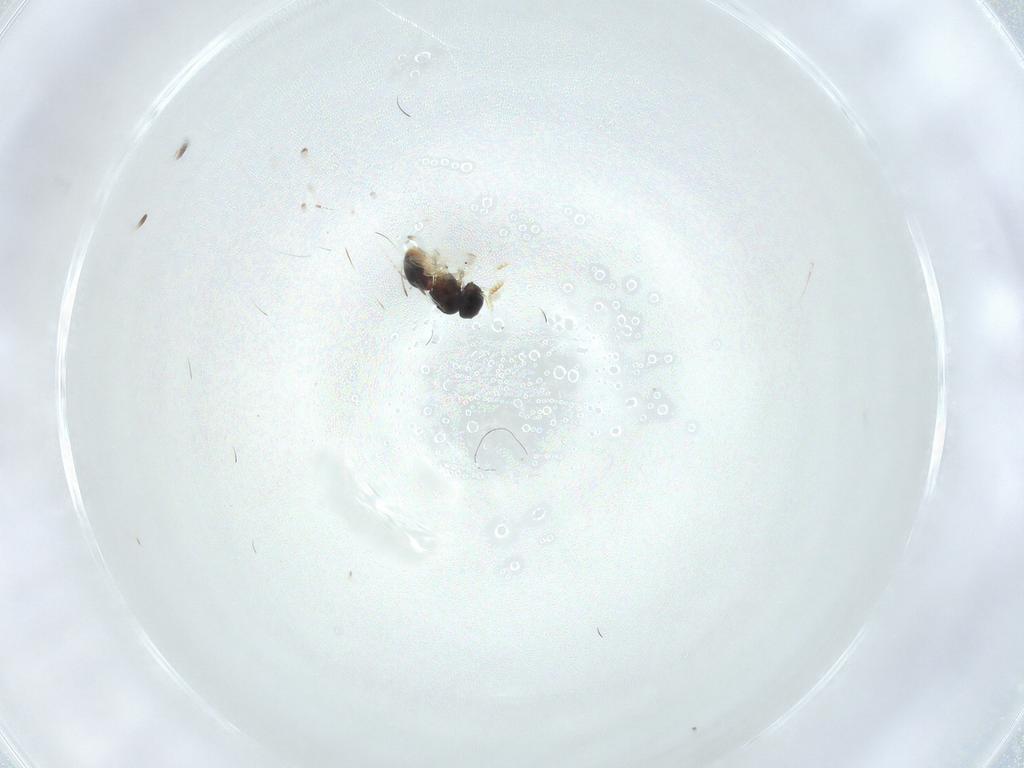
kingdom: Animalia
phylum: Arthropoda
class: Insecta
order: Hymenoptera
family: Scelionidae
